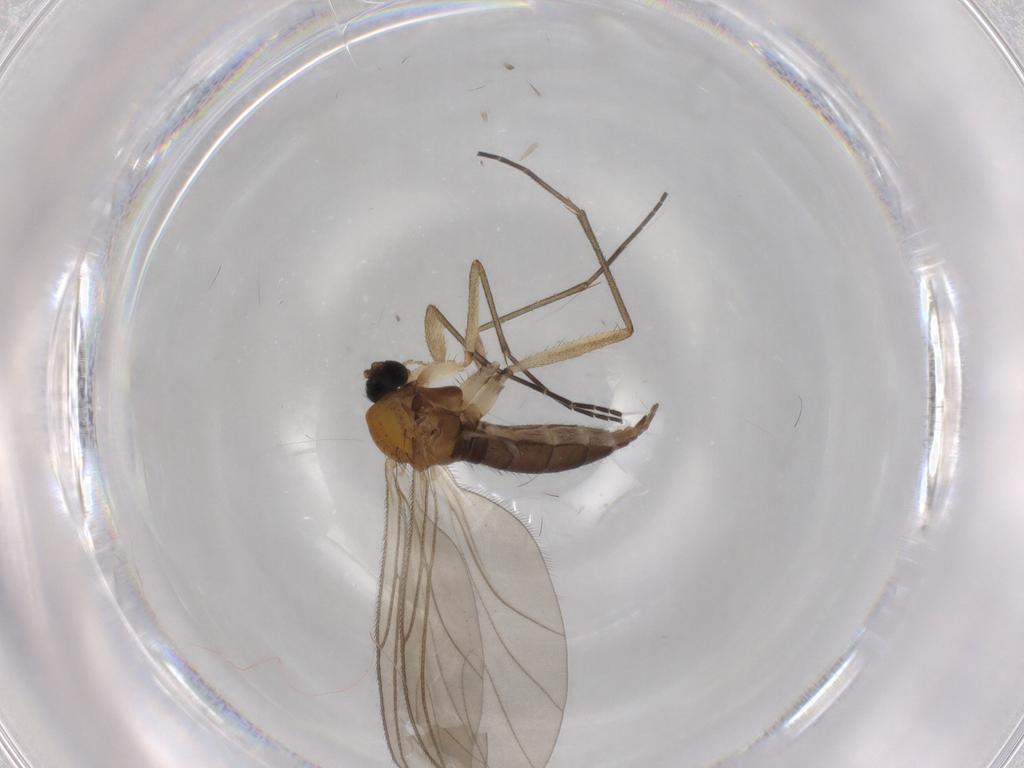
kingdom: Animalia
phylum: Arthropoda
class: Insecta
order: Diptera
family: Sciaridae
